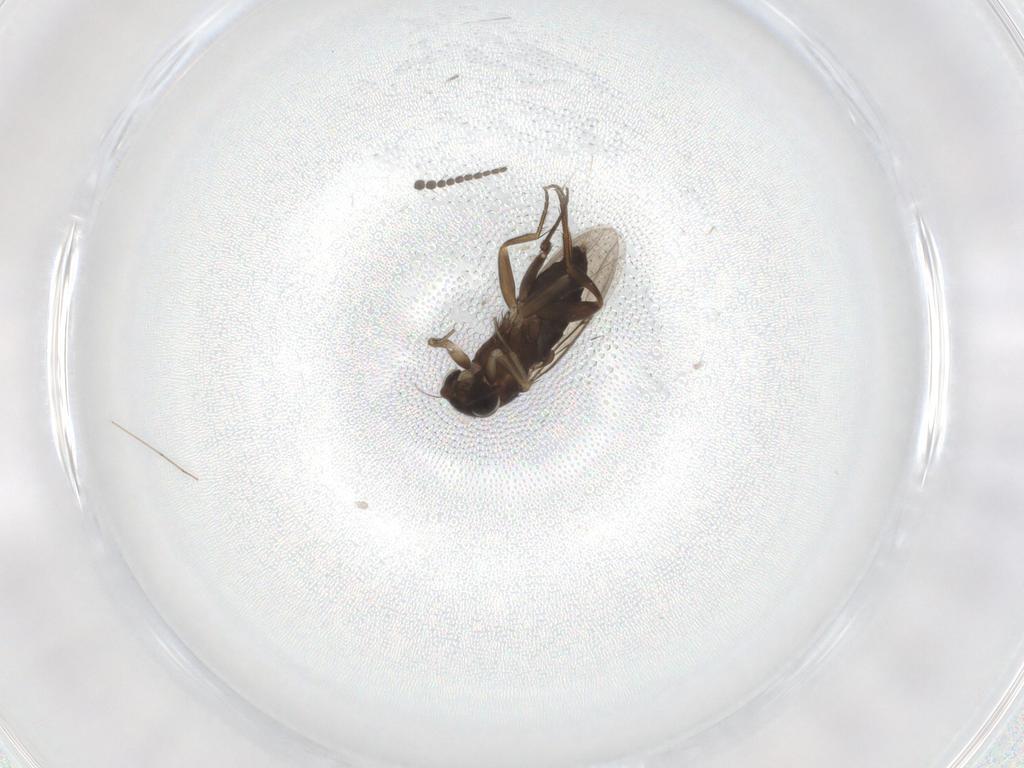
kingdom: Animalia
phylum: Arthropoda
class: Insecta
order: Diptera
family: Phoridae
